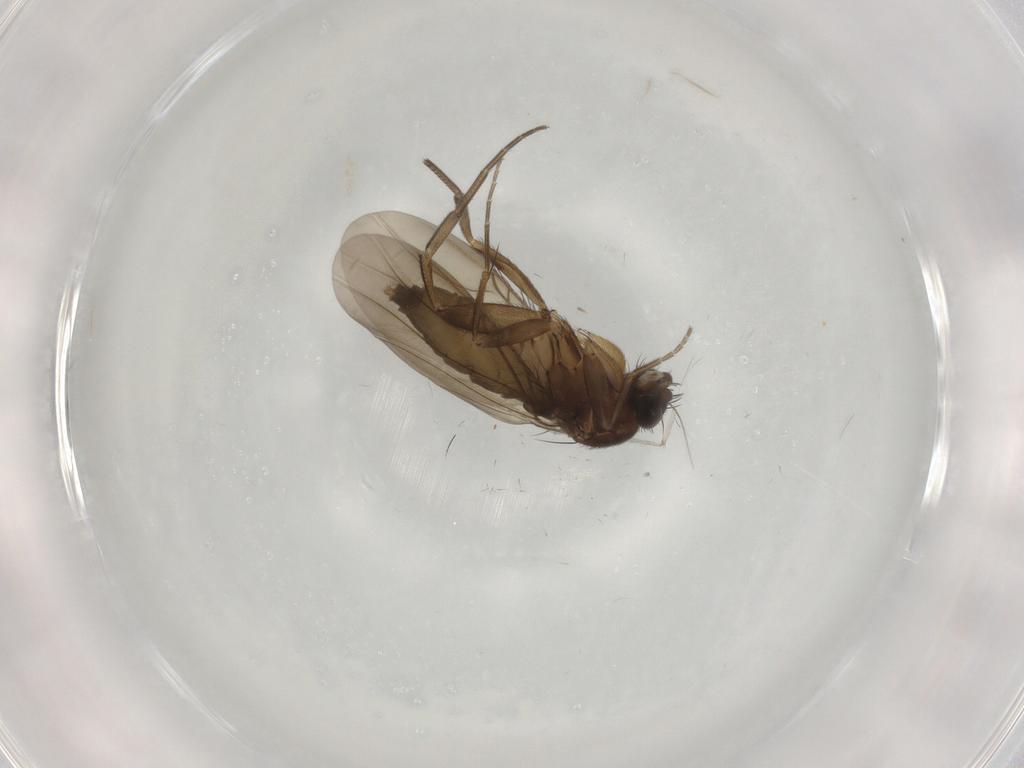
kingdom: Animalia
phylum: Arthropoda
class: Insecta
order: Diptera
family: Phoridae
